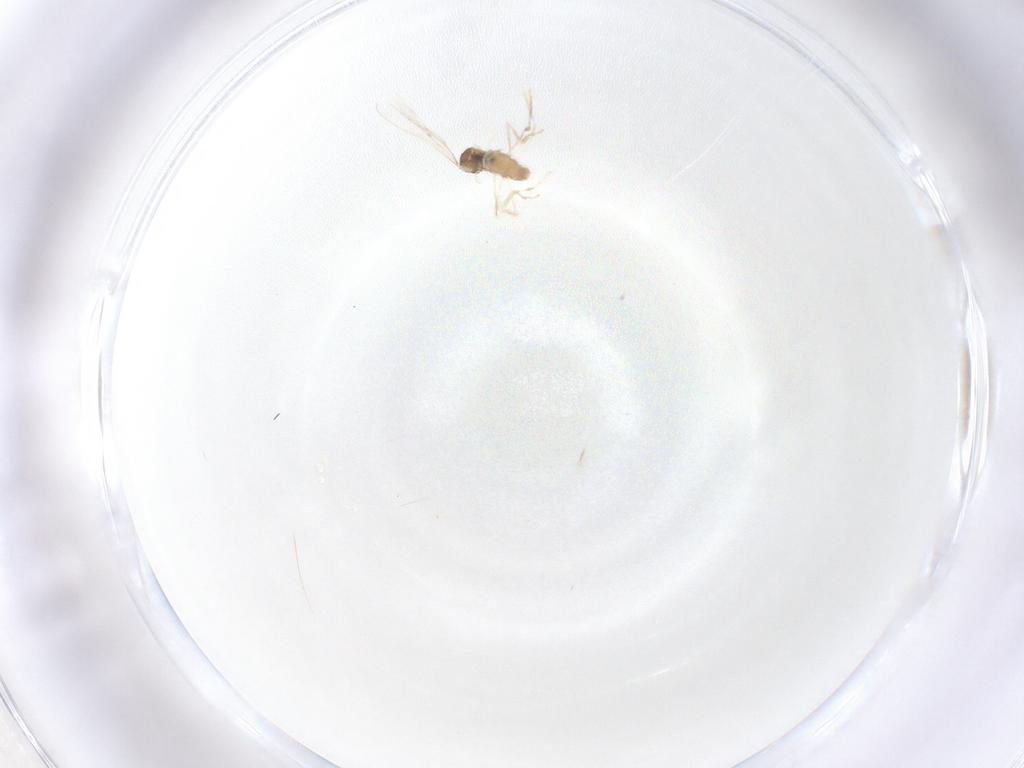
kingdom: Animalia
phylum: Arthropoda
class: Insecta
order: Diptera
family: Cecidomyiidae
